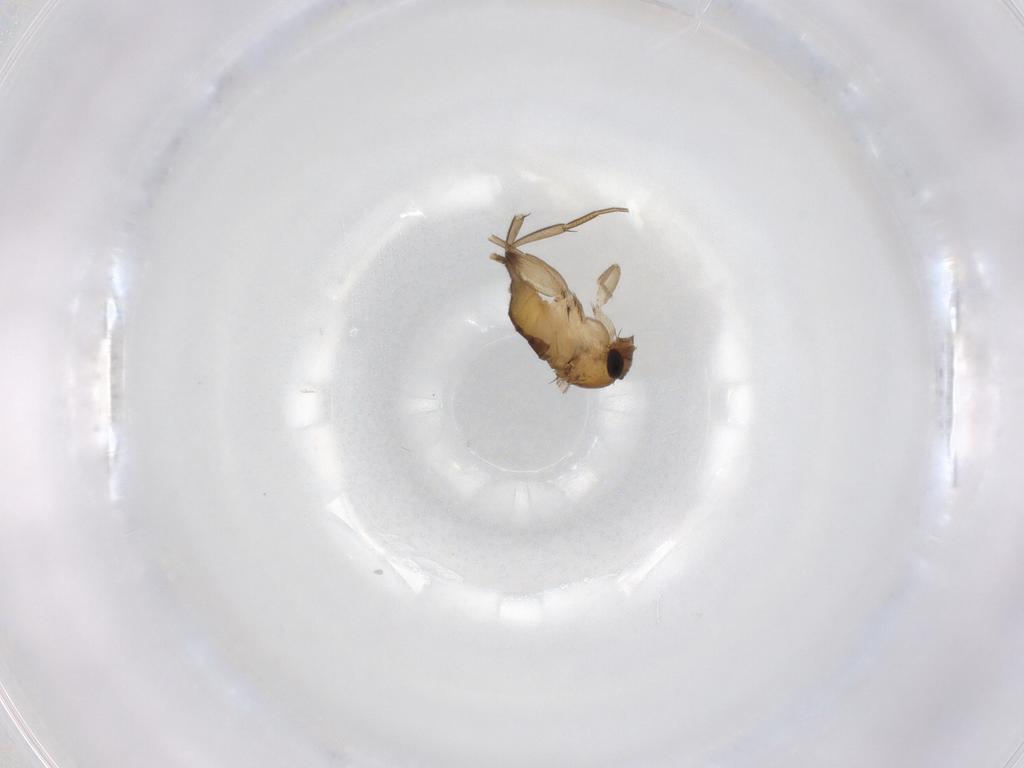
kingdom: Animalia
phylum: Arthropoda
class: Insecta
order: Diptera
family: Phoridae
